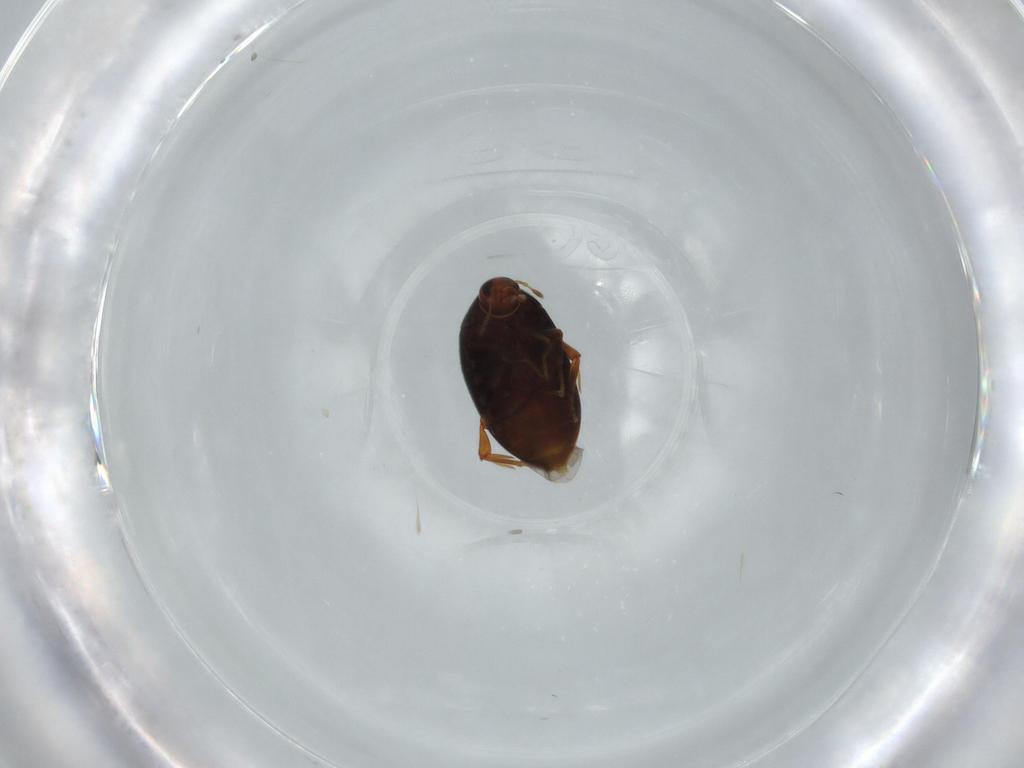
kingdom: Animalia
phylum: Arthropoda
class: Insecta
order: Coleoptera
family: Melandryidae
